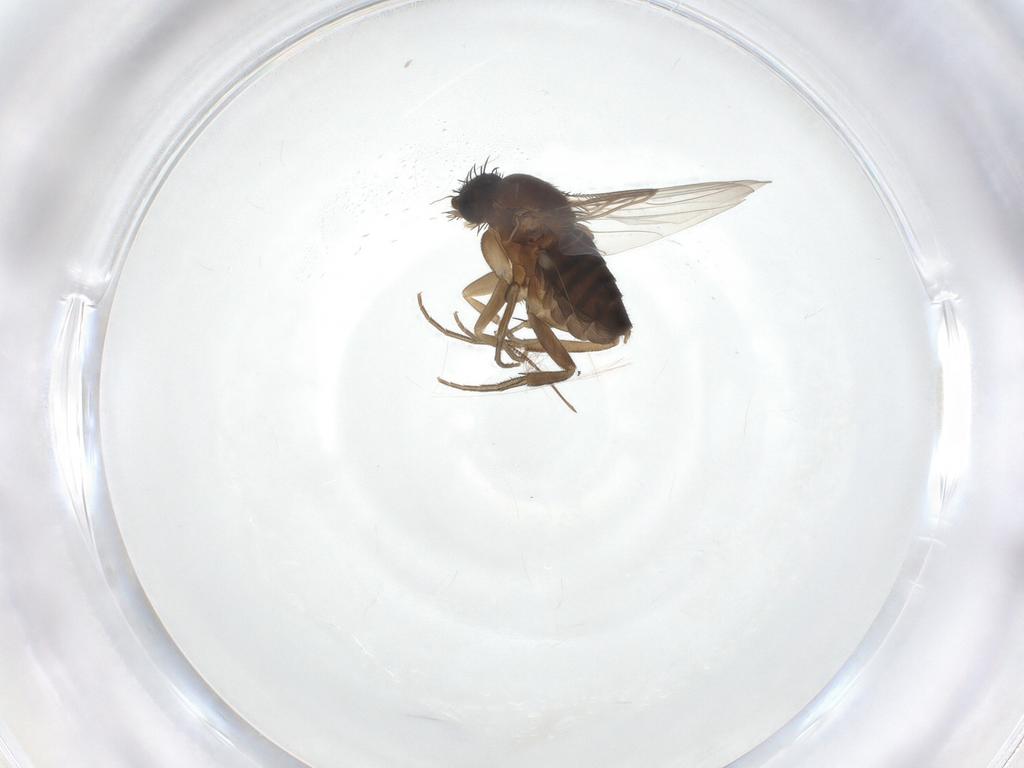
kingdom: Animalia
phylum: Arthropoda
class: Insecta
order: Diptera
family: Phoridae
